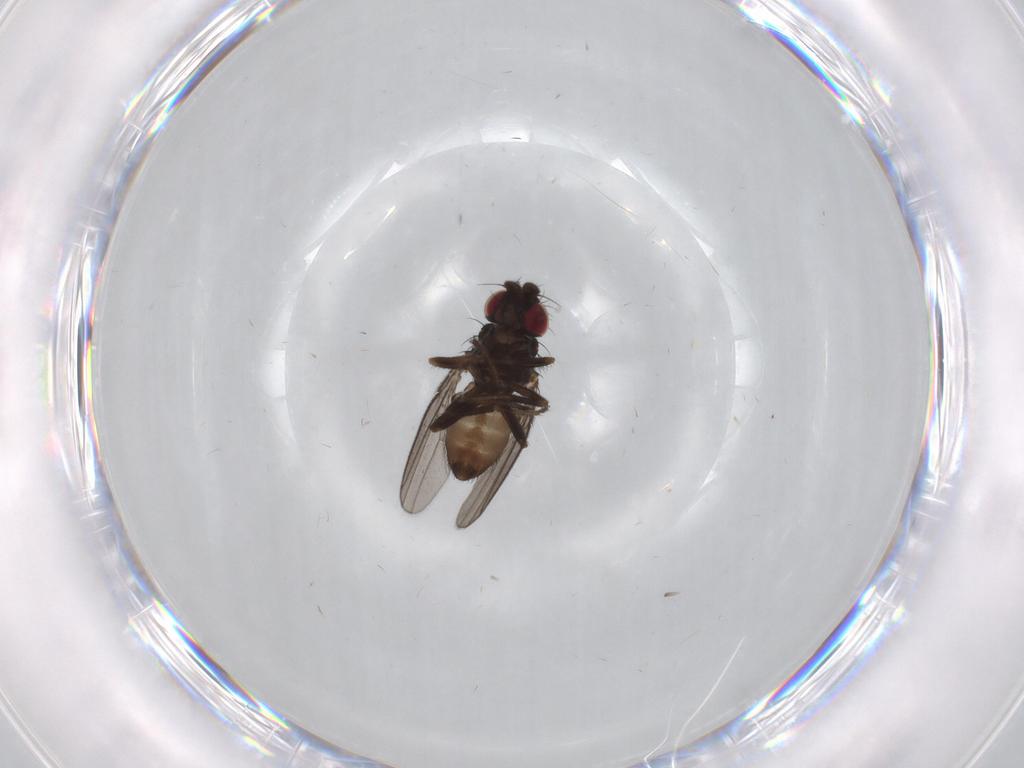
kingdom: Animalia
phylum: Arthropoda
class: Insecta
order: Diptera
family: Milichiidae
